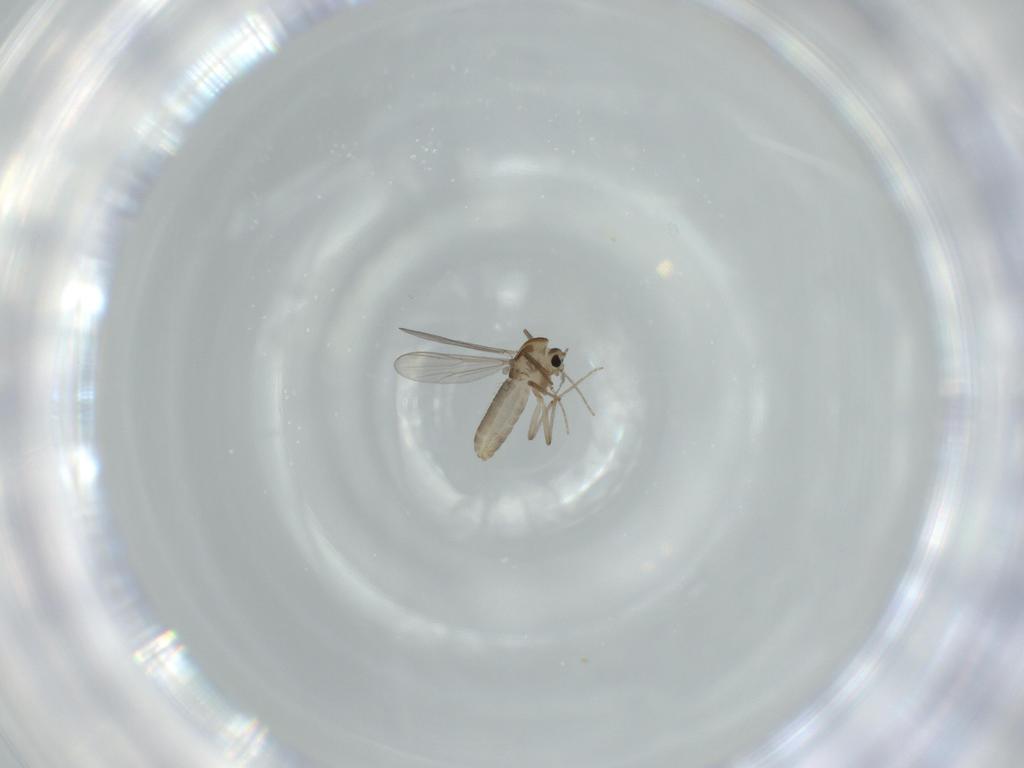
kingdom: Animalia
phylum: Arthropoda
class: Insecta
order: Diptera
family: Chironomidae
